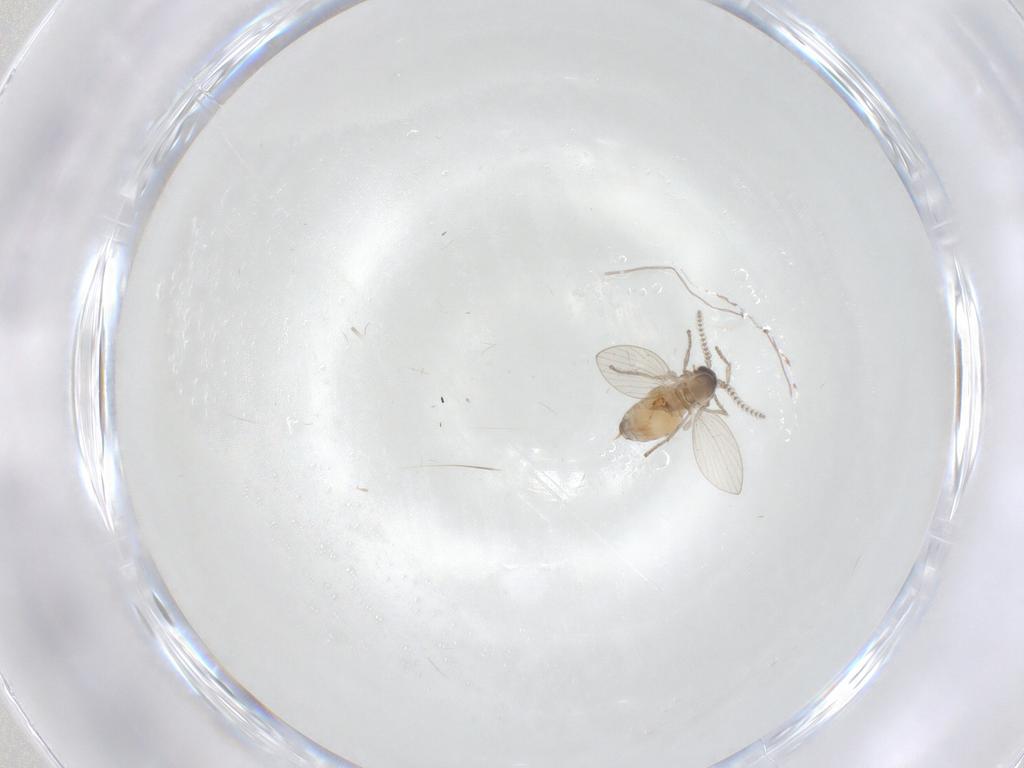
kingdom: Animalia
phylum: Arthropoda
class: Insecta
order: Diptera
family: Psychodidae
